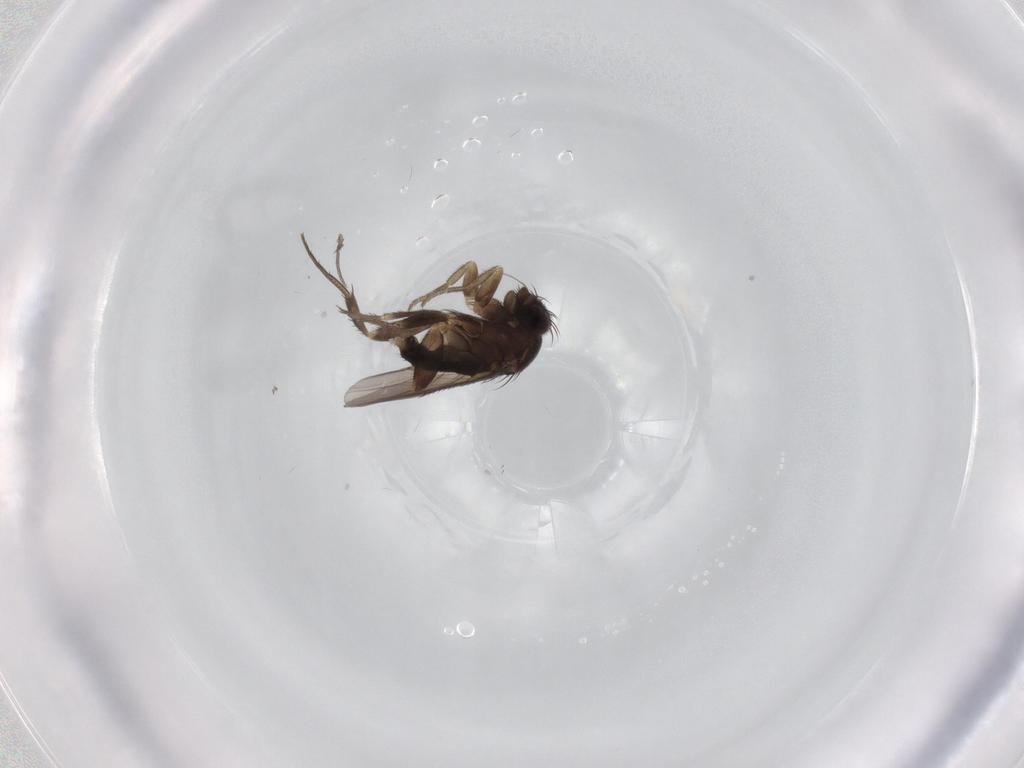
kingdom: Animalia
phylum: Arthropoda
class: Insecta
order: Diptera
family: Phoridae
